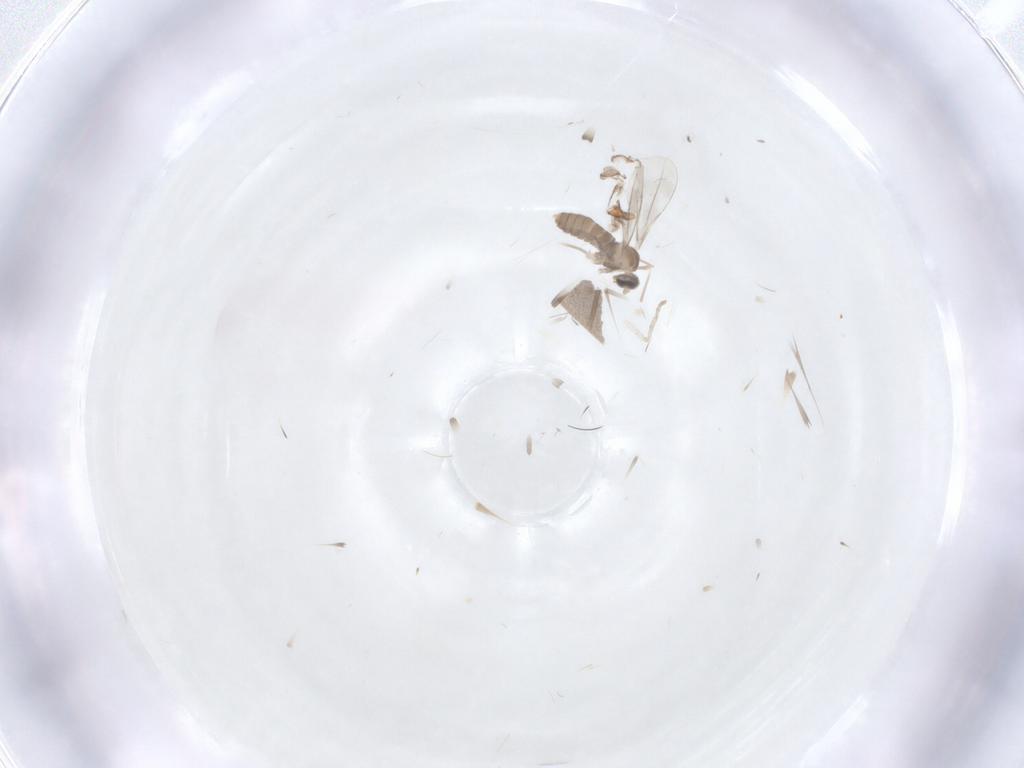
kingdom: Animalia
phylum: Arthropoda
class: Insecta
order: Diptera
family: Cecidomyiidae
